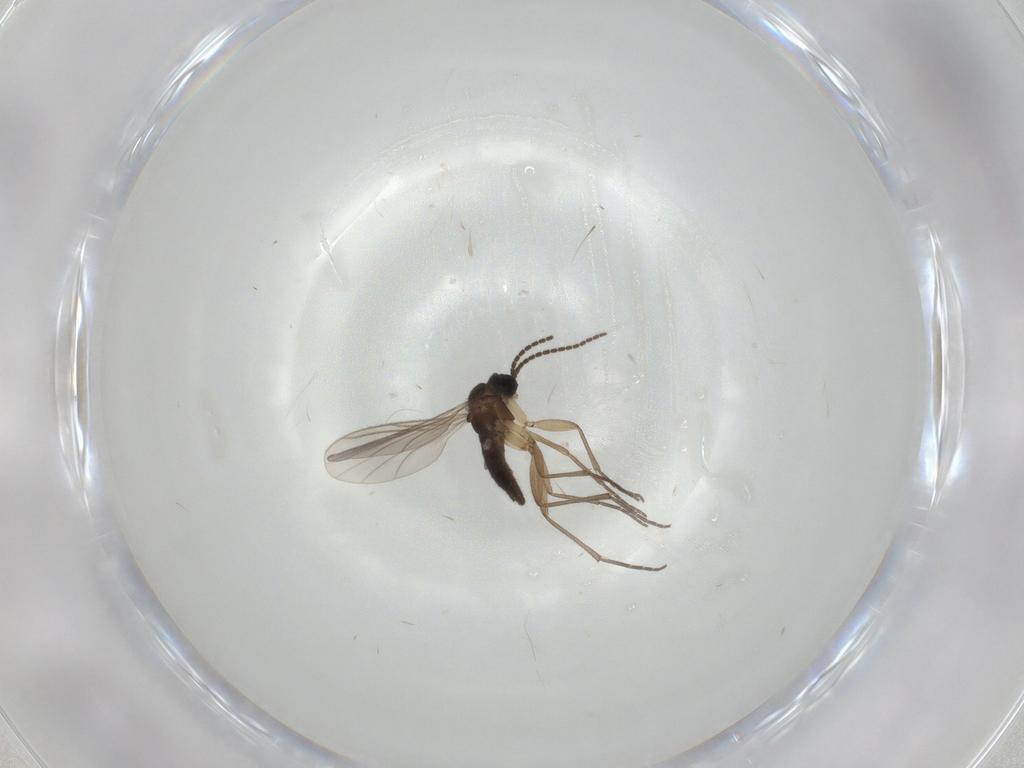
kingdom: Animalia
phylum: Arthropoda
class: Insecta
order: Diptera
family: Sciaridae
